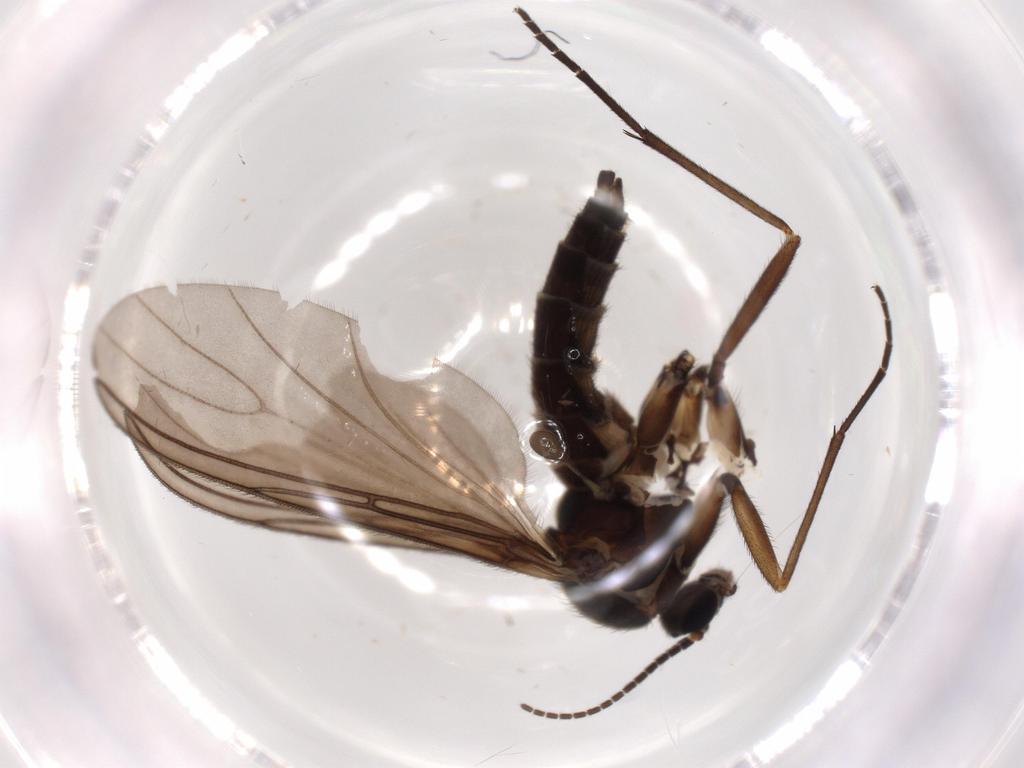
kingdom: Animalia
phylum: Arthropoda
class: Insecta
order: Diptera
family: Sciaridae
